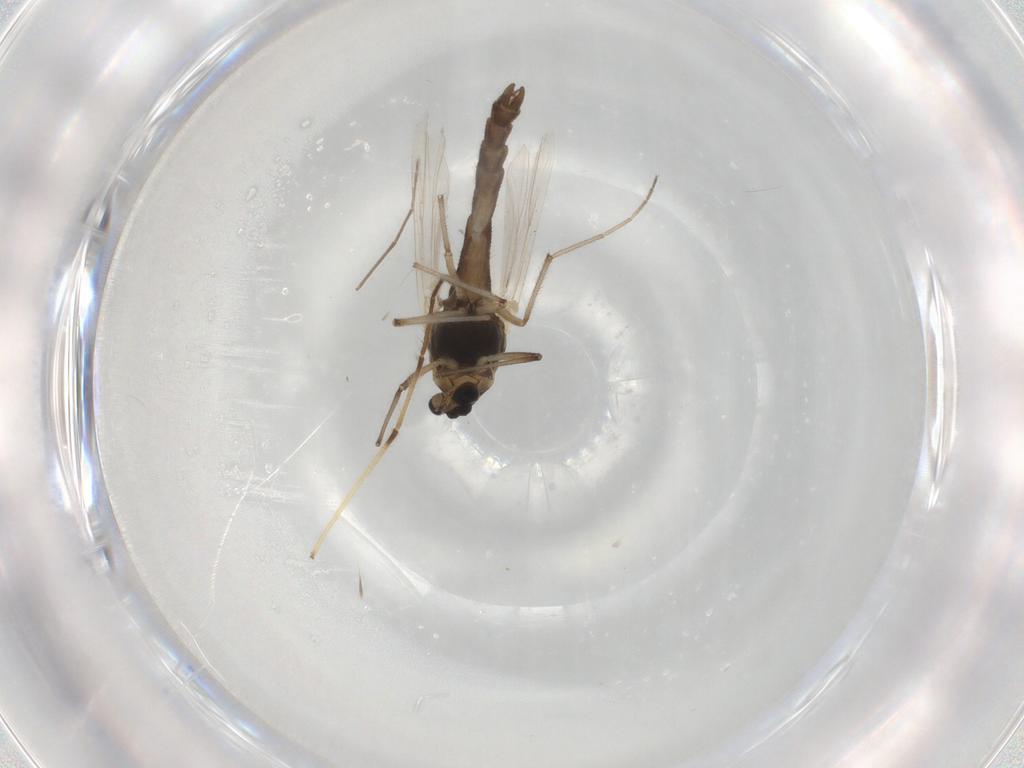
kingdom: Animalia
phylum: Arthropoda
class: Insecta
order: Diptera
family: Chironomidae
